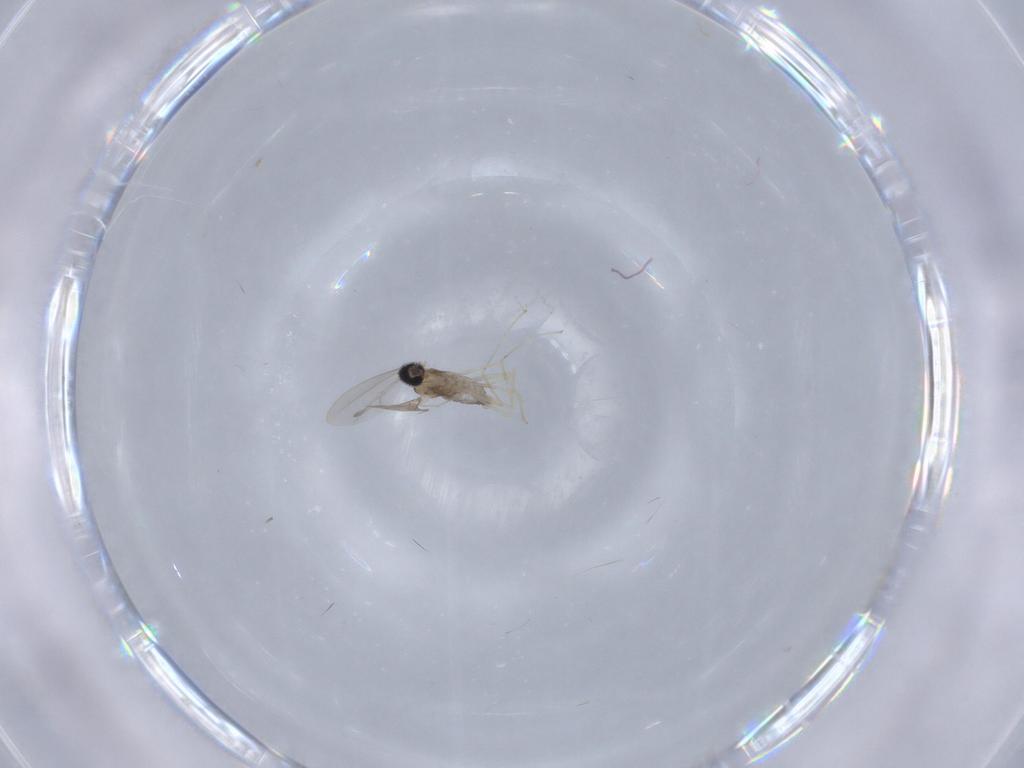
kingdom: Animalia
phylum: Arthropoda
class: Insecta
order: Diptera
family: Cecidomyiidae
